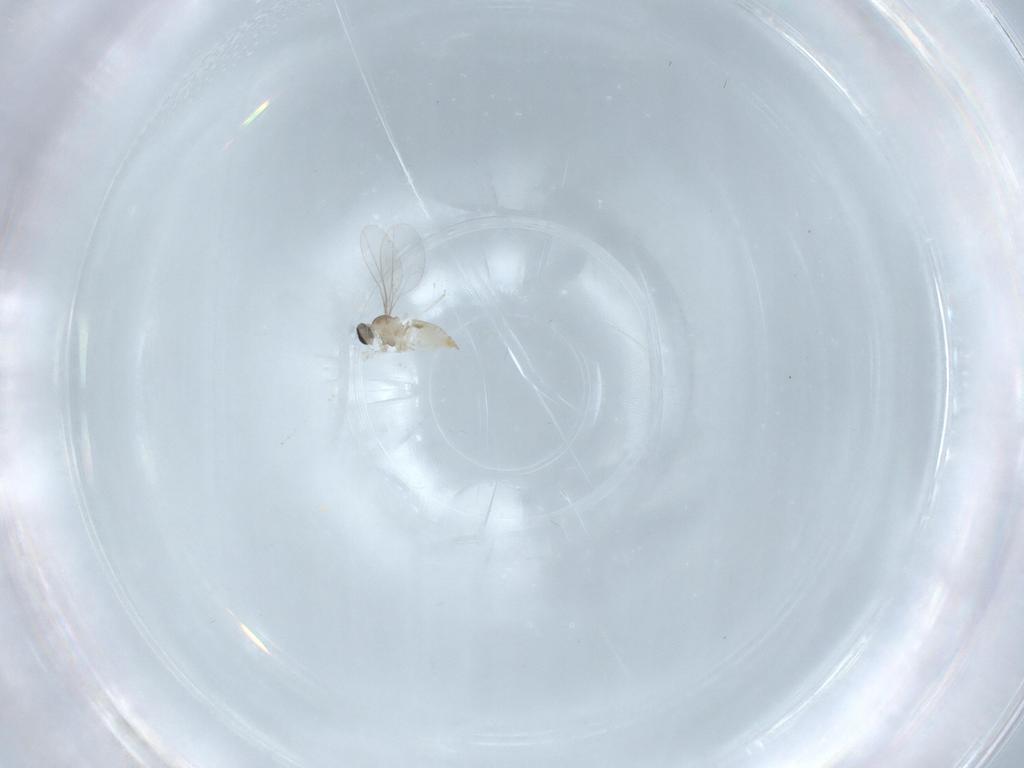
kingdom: Animalia
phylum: Arthropoda
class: Insecta
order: Diptera
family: Cecidomyiidae
